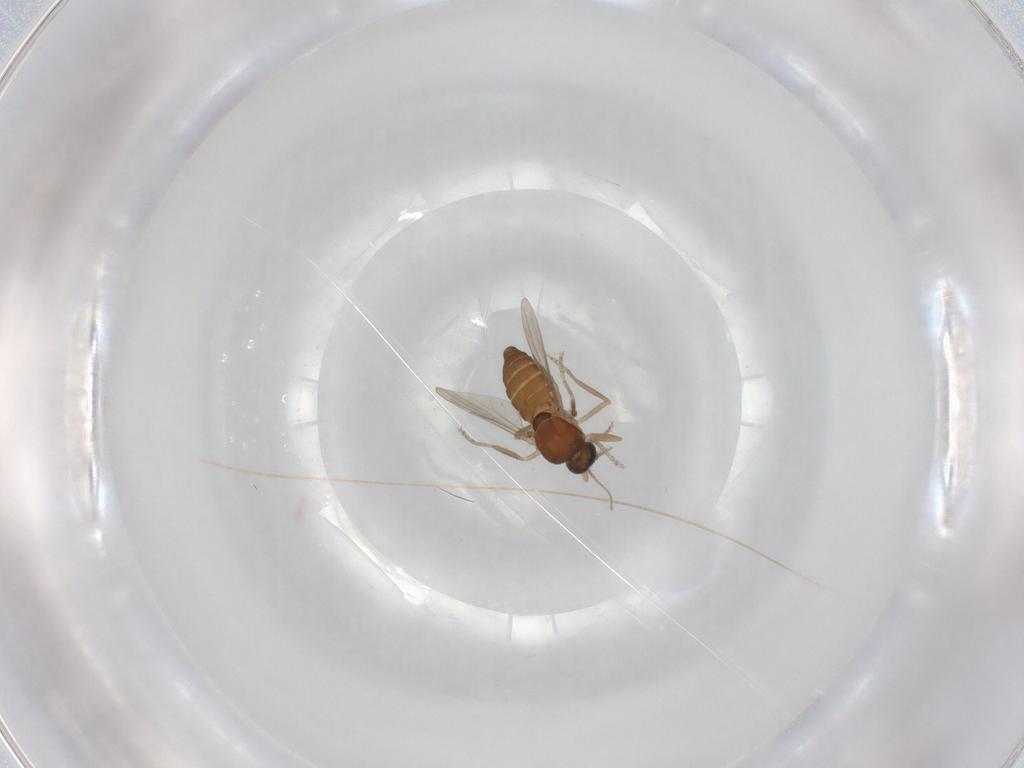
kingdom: Animalia
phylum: Arthropoda
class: Insecta
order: Diptera
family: Ceratopogonidae
